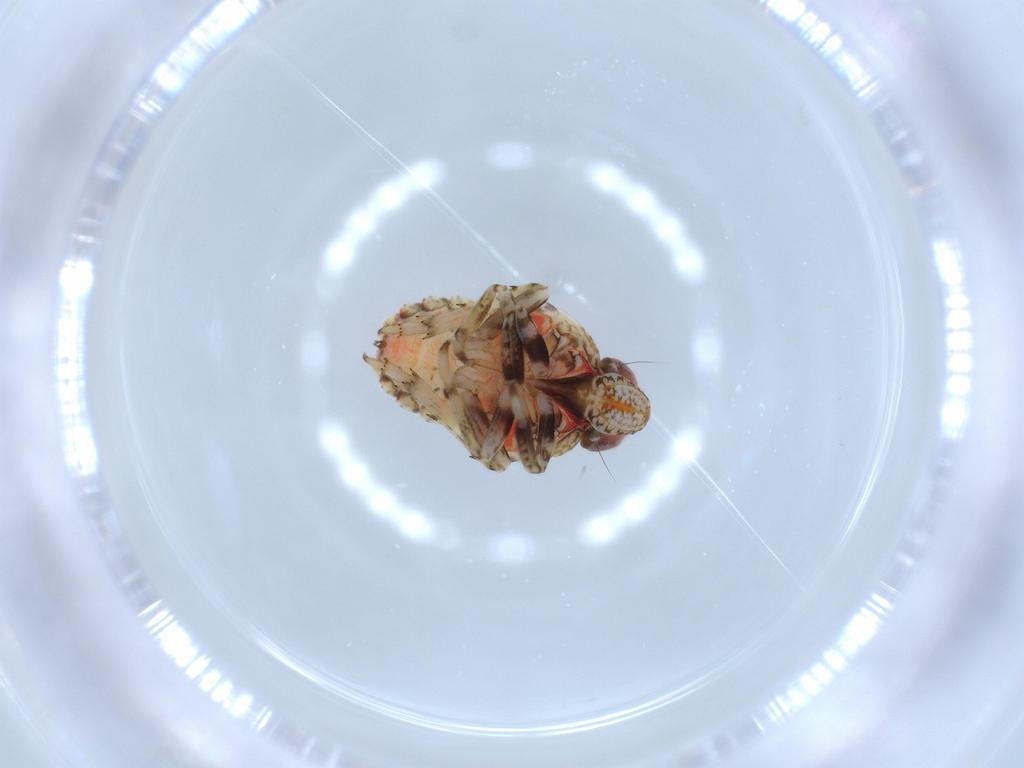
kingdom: Animalia
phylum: Arthropoda
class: Insecta
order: Hemiptera
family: Issidae
